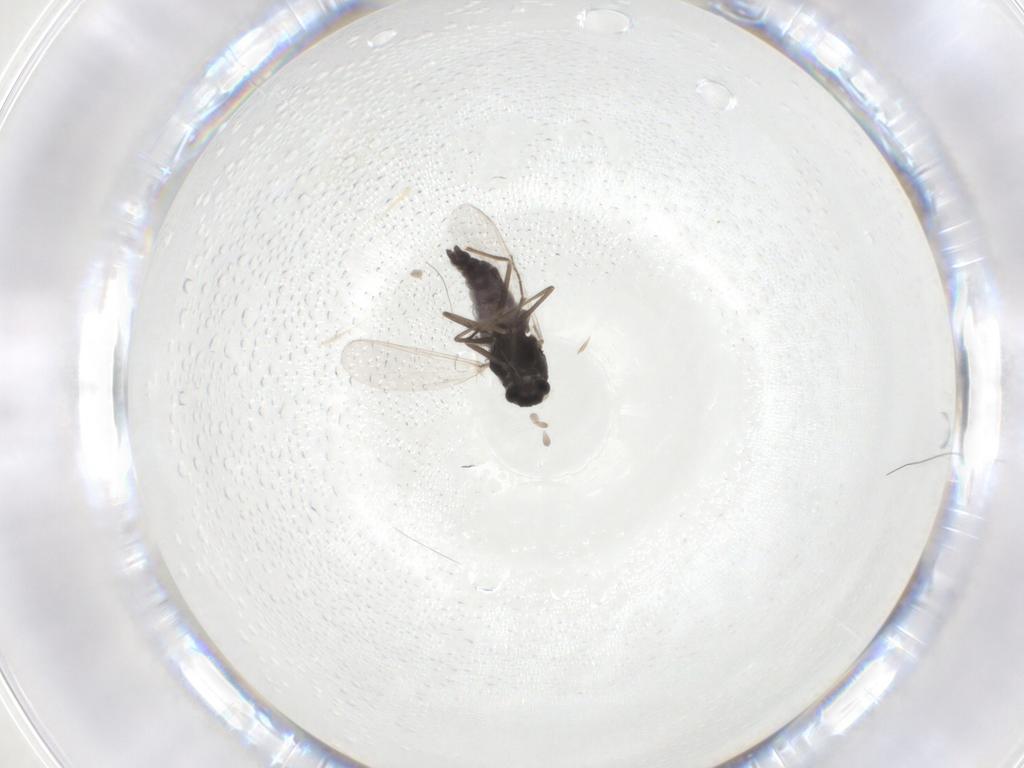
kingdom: Animalia
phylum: Arthropoda
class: Insecta
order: Diptera
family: Chironomidae
